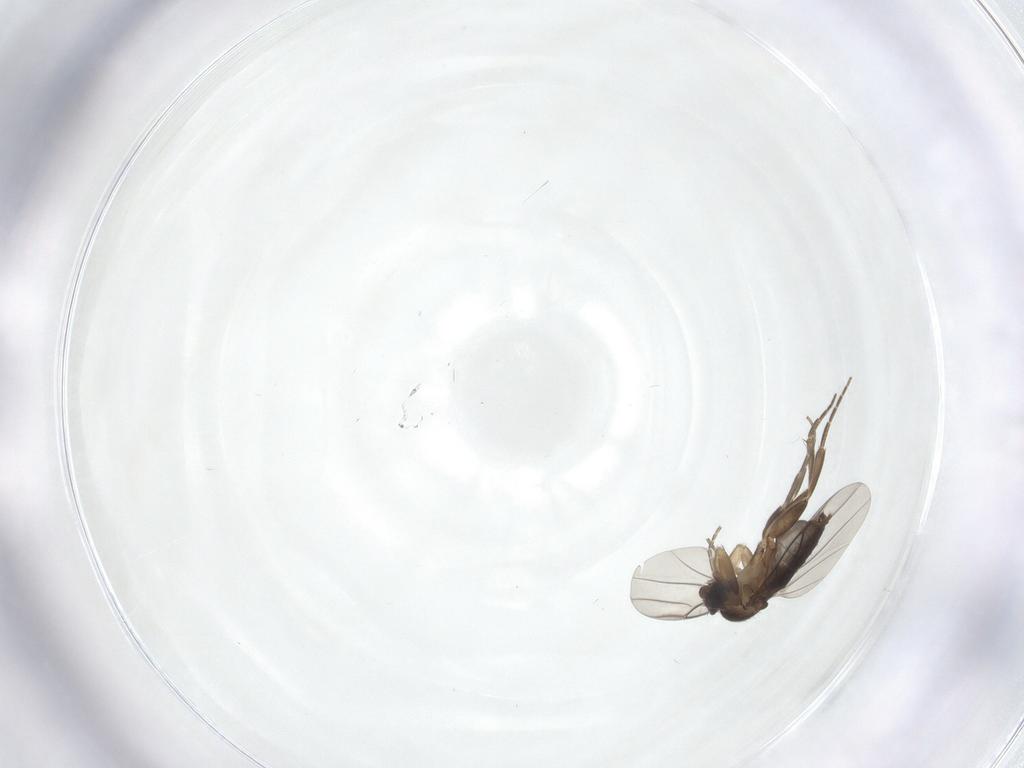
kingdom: Animalia
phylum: Arthropoda
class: Insecta
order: Diptera
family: Phoridae
